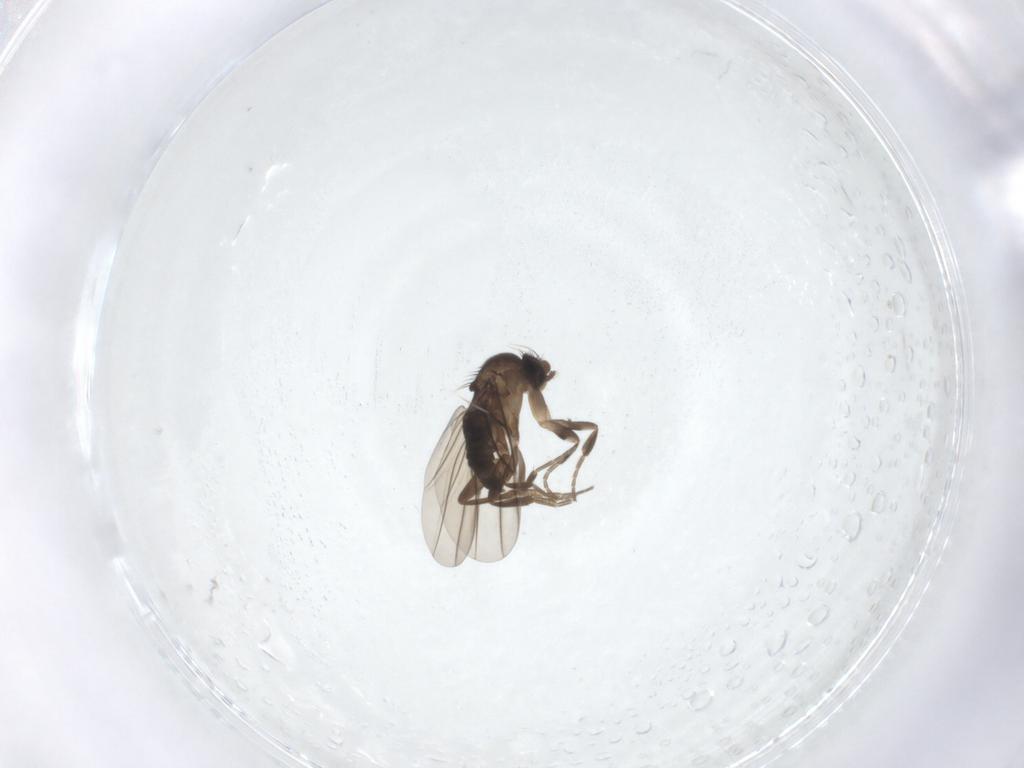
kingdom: Animalia
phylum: Arthropoda
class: Insecta
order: Diptera
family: Phoridae
